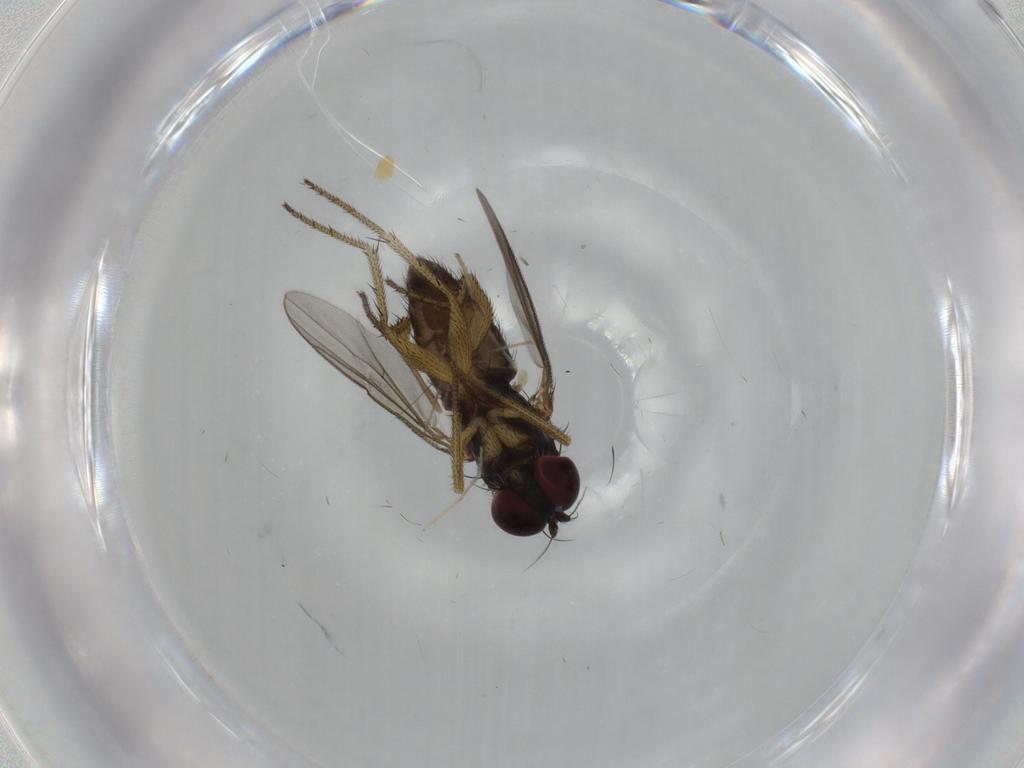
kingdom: Animalia
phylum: Arthropoda
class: Insecta
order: Diptera
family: Dolichopodidae
